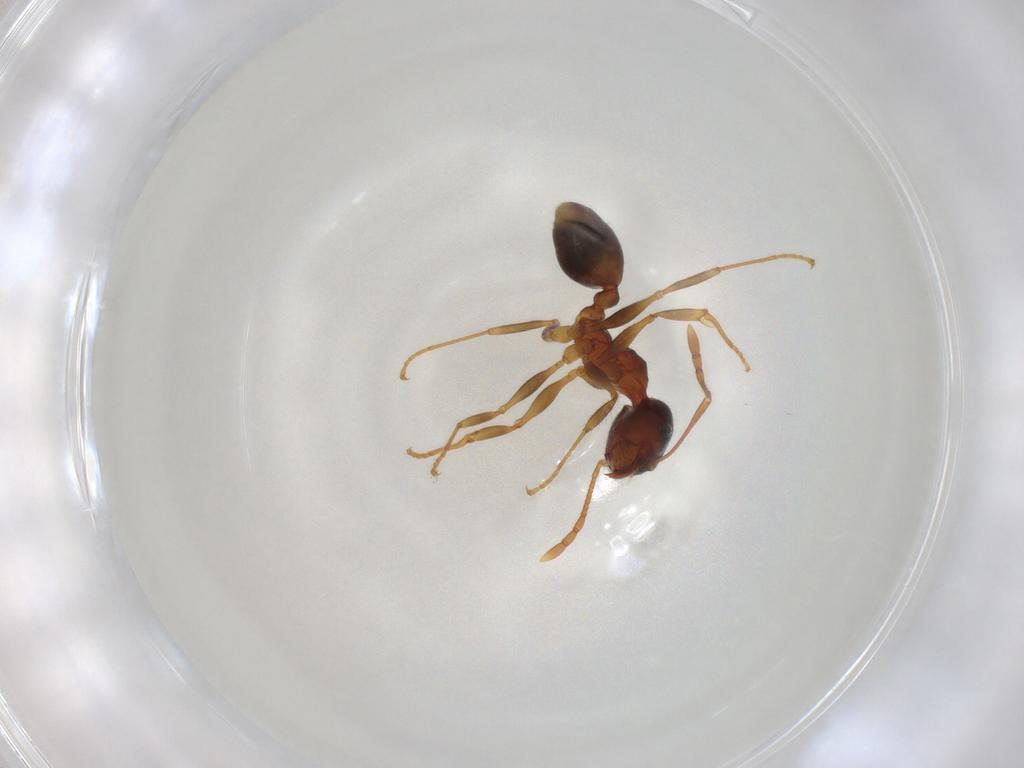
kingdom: Animalia
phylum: Arthropoda
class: Insecta
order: Hymenoptera
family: Formicidae
